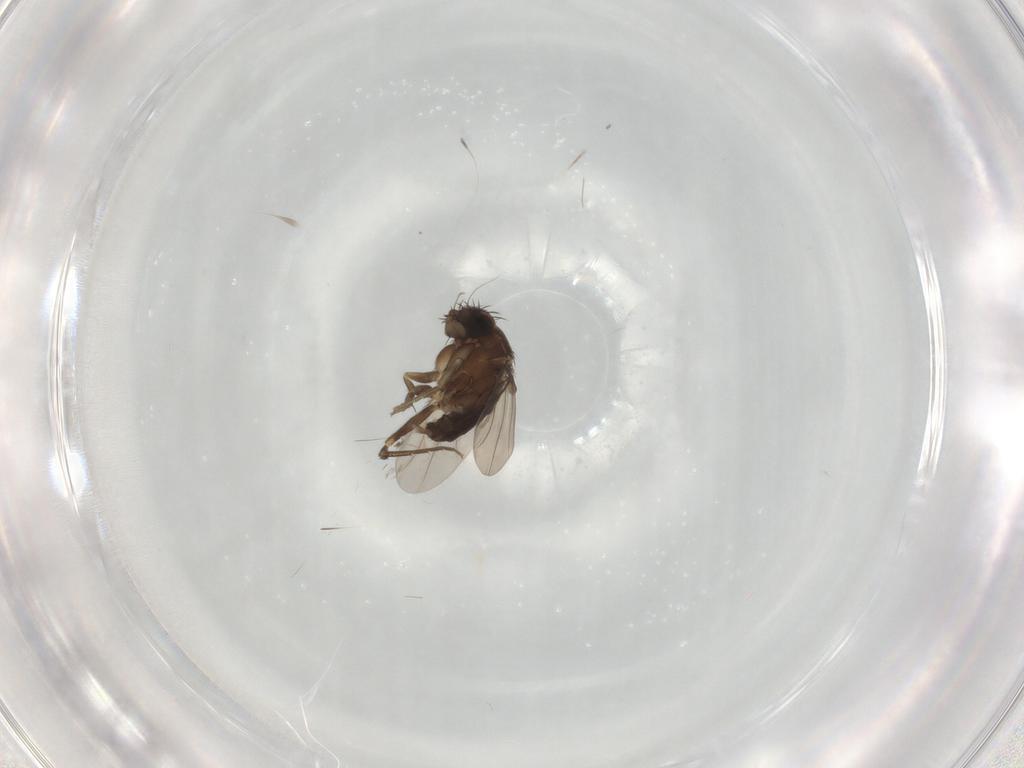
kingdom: Animalia
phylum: Arthropoda
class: Insecta
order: Diptera
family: Phoridae
